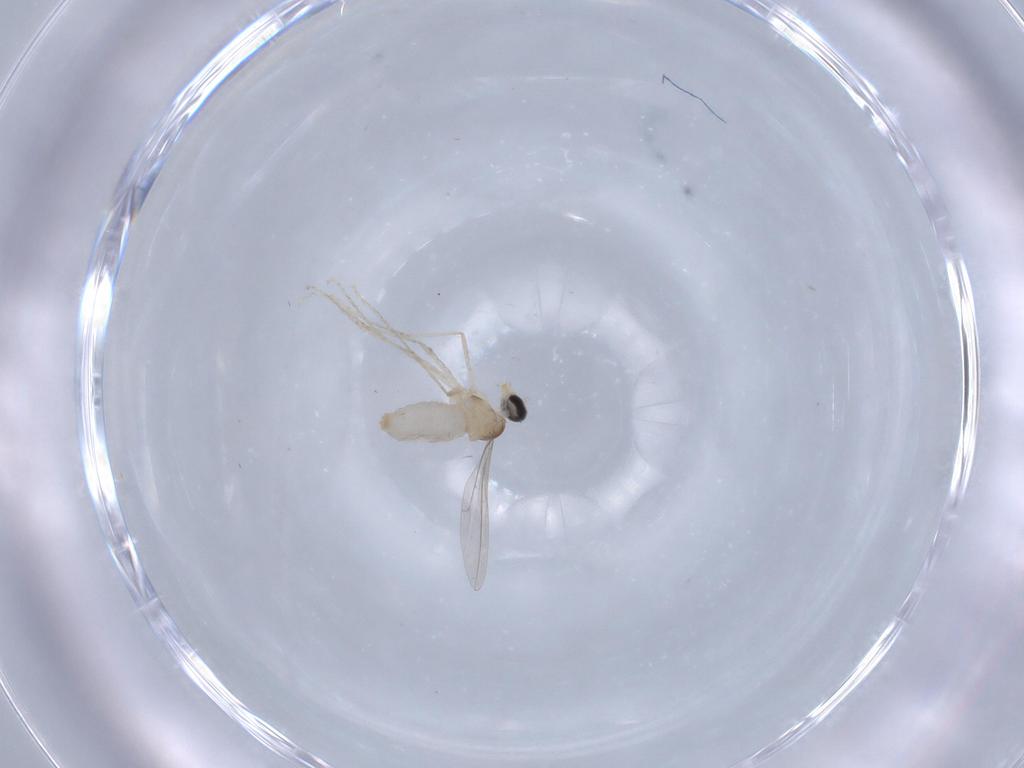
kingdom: Animalia
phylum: Arthropoda
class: Insecta
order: Diptera
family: Cecidomyiidae
